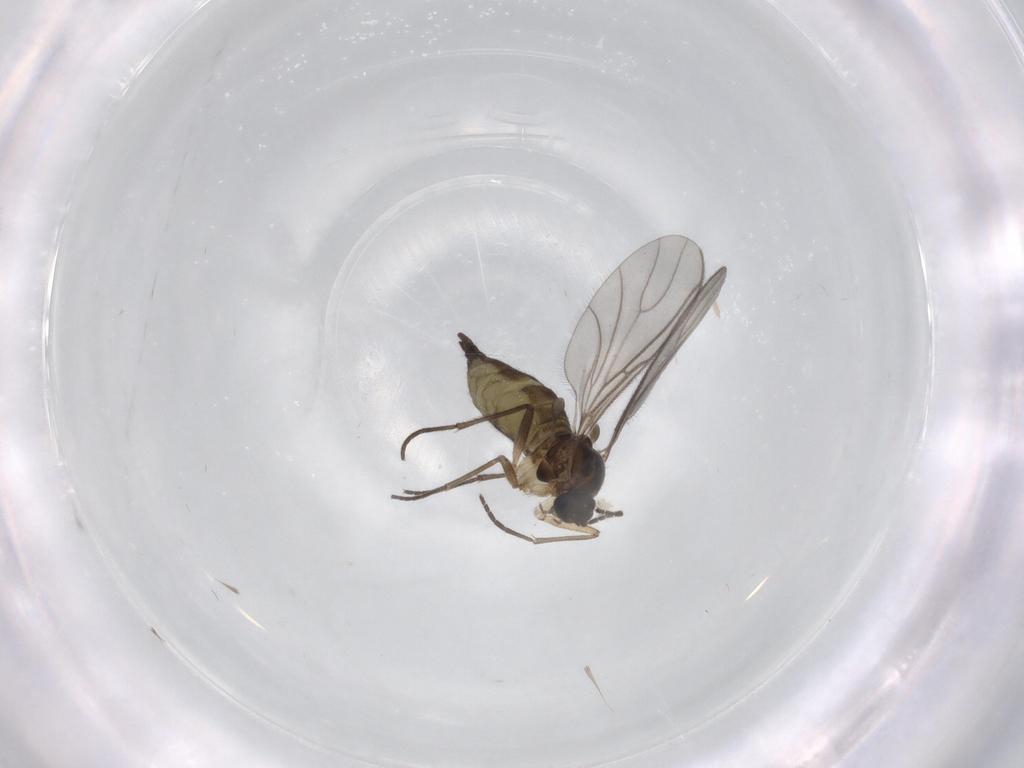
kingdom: Animalia
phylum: Arthropoda
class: Insecta
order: Diptera
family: Sciaridae
